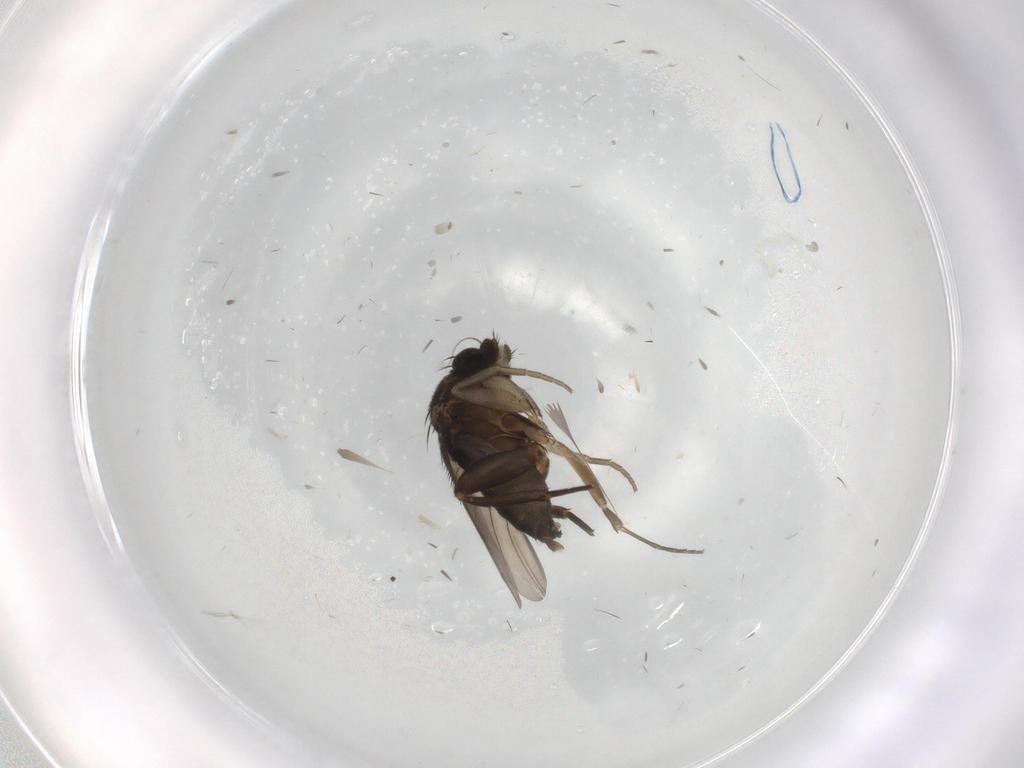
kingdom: Animalia
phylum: Arthropoda
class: Insecta
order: Diptera
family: Phoridae
